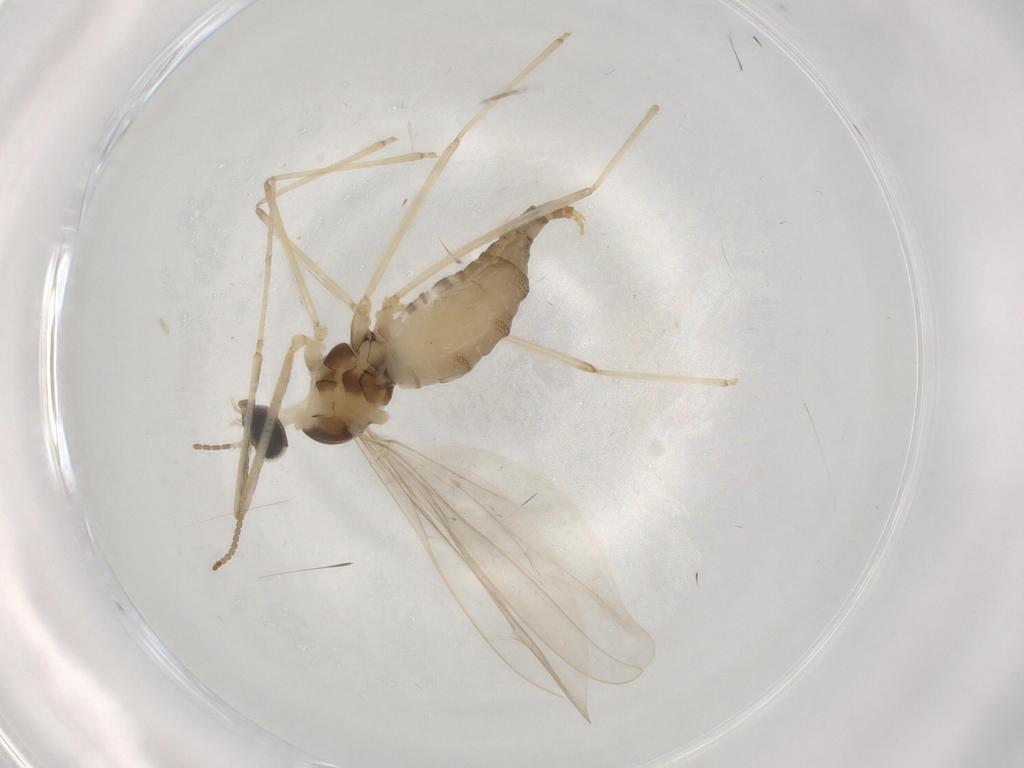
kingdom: Animalia
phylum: Arthropoda
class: Insecta
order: Diptera
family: Cecidomyiidae
